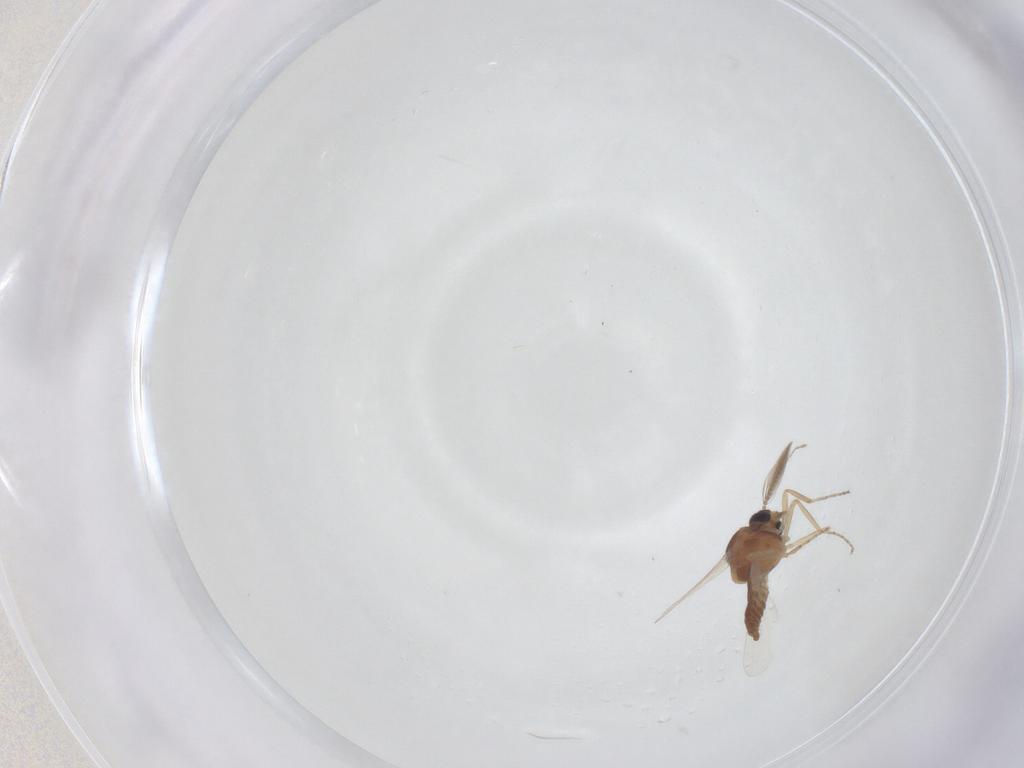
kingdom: Animalia
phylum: Arthropoda
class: Insecta
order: Diptera
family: Ceratopogonidae
